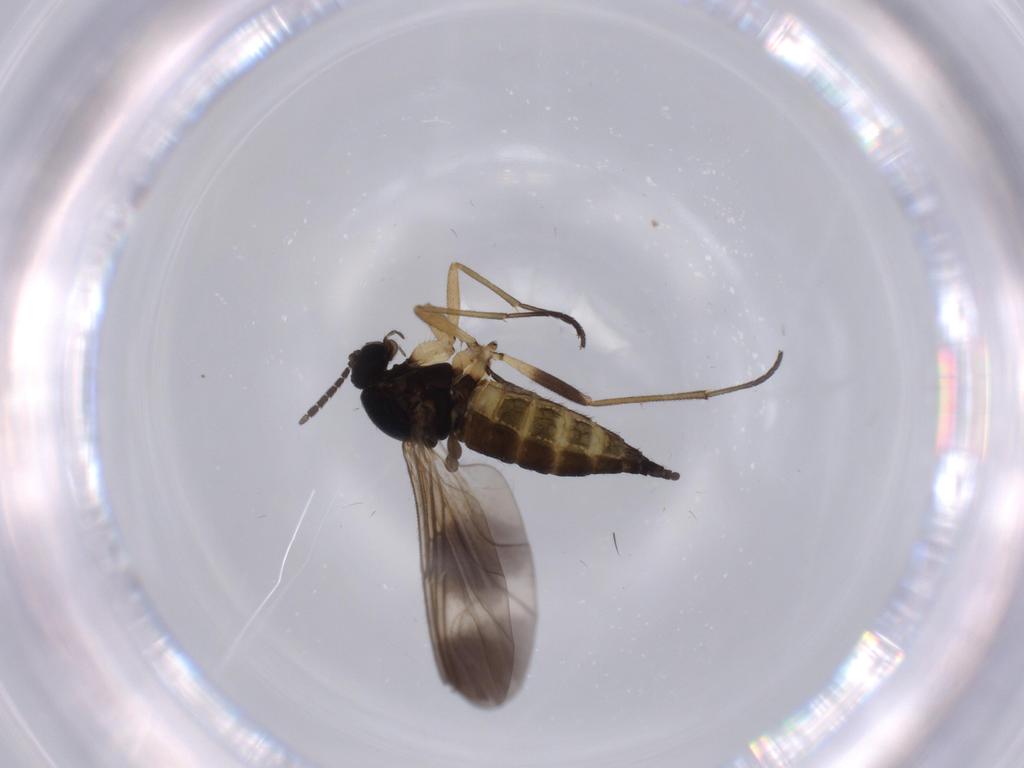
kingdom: Animalia
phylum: Arthropoda
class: Insecta
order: Diptera
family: Sciaridae
